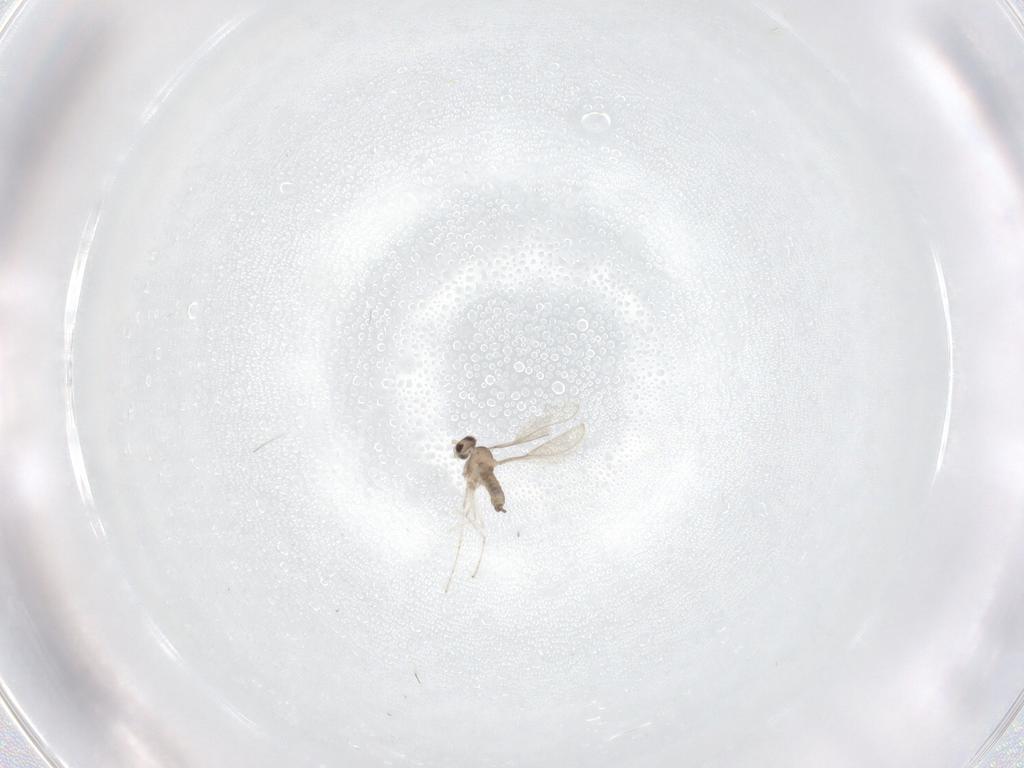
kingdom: Animalia
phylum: Arthropoda
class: Insecta
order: Diptera
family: Cecidomyiidae
